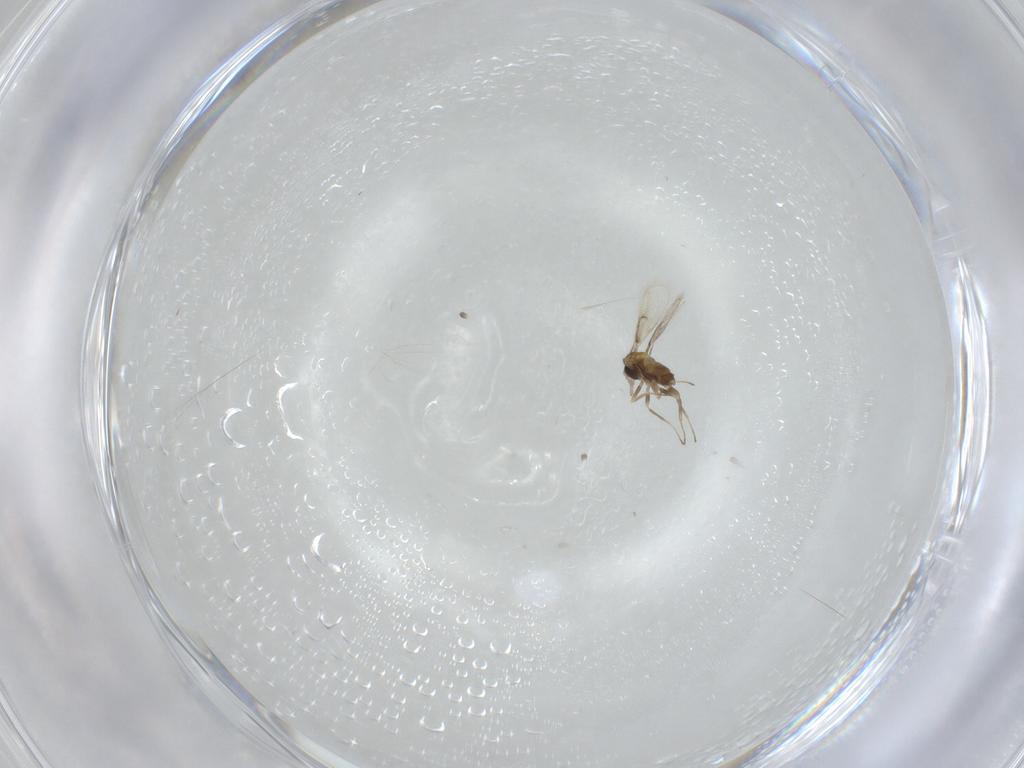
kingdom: Animalia
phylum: Arthropoda
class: Insecta
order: Hymenoptera
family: Trichogrammatidae
